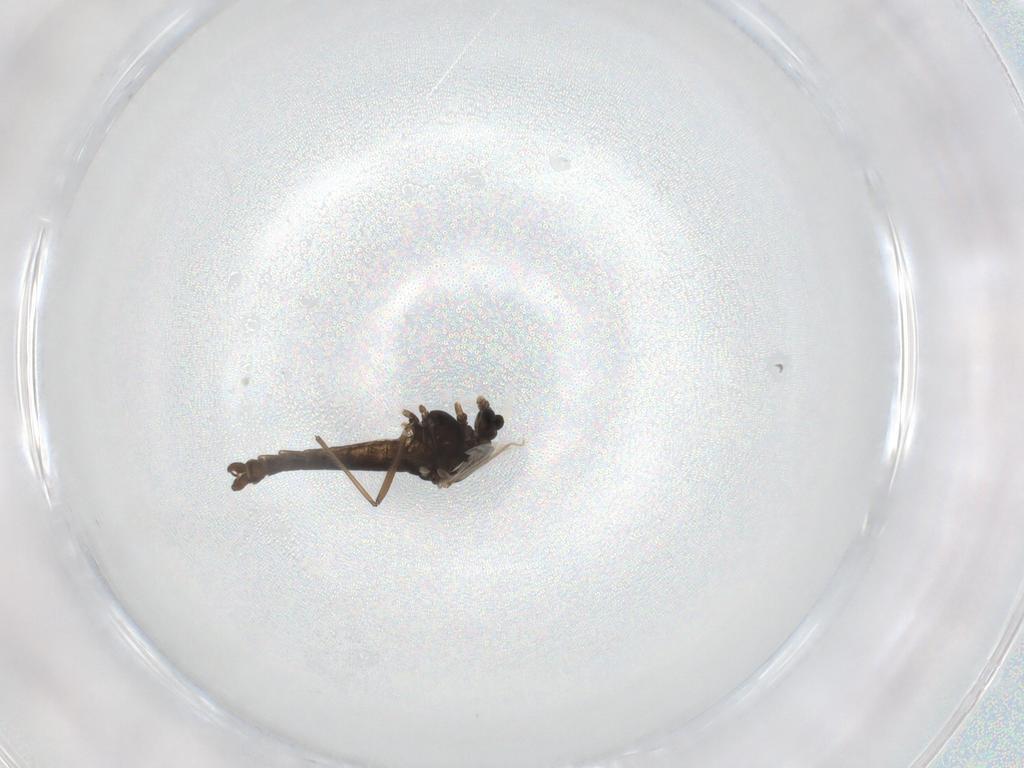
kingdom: Animalia
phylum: Arthropoda
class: Insecta
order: Diptera
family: Chironomidae
